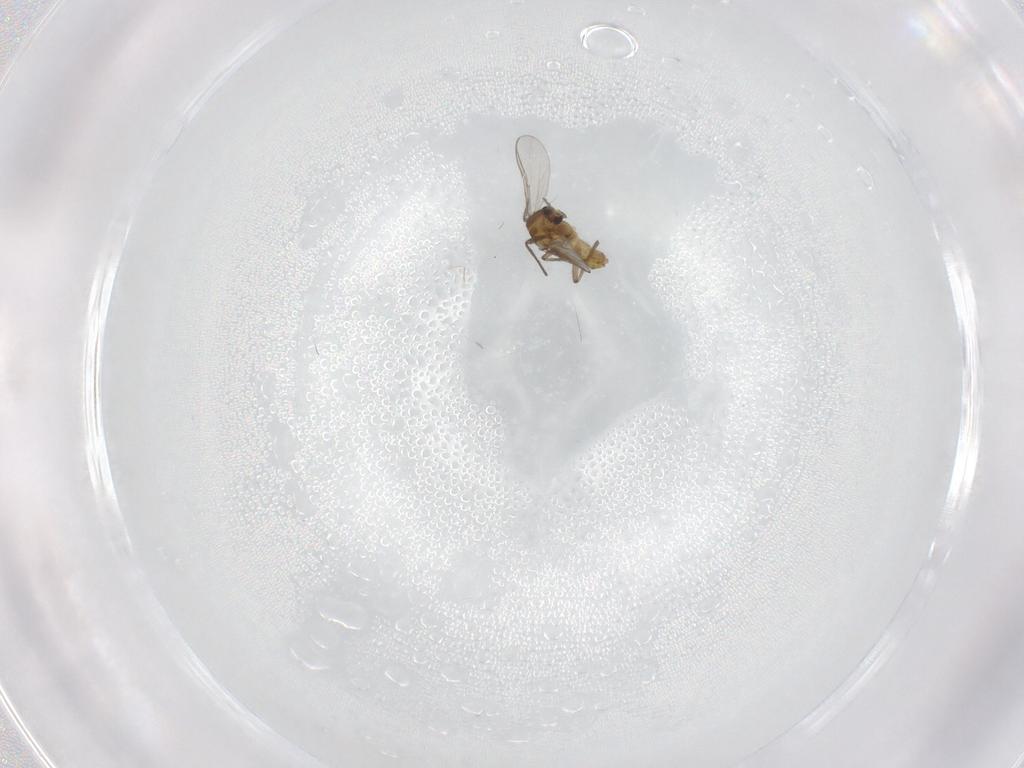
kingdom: Animalia
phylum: Arthropoda
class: Insecta
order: Diptera
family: Chironomidae
